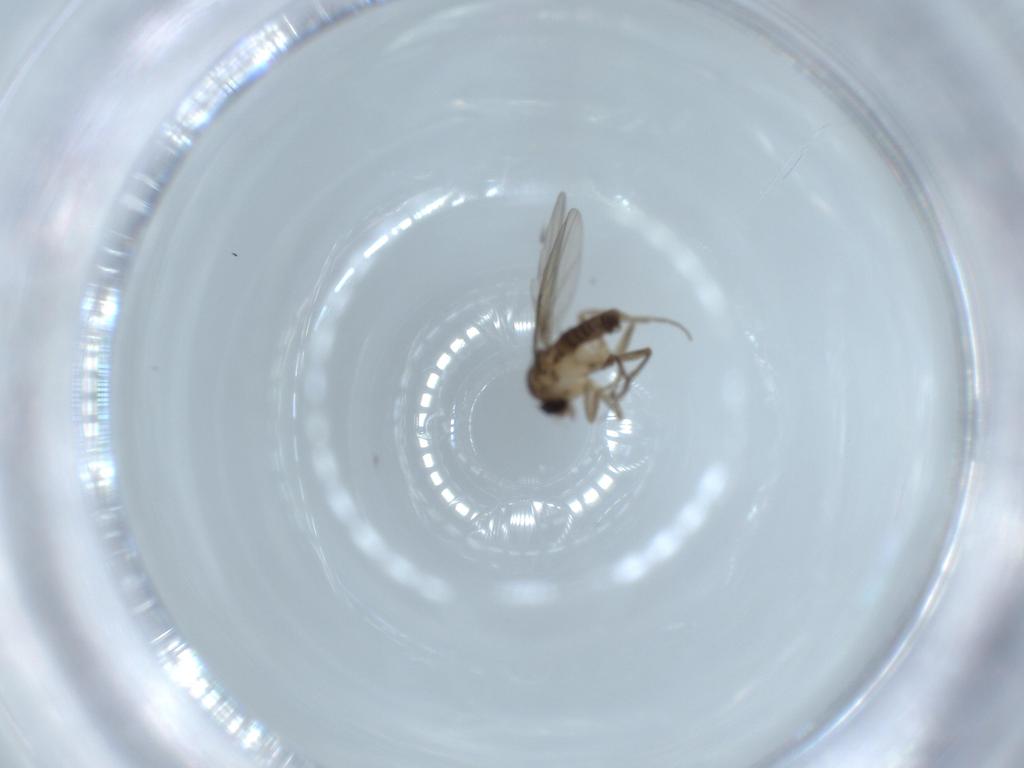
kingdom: Animalia
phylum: Arthropoda
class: Insecta
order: Diptera
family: Phoridae
